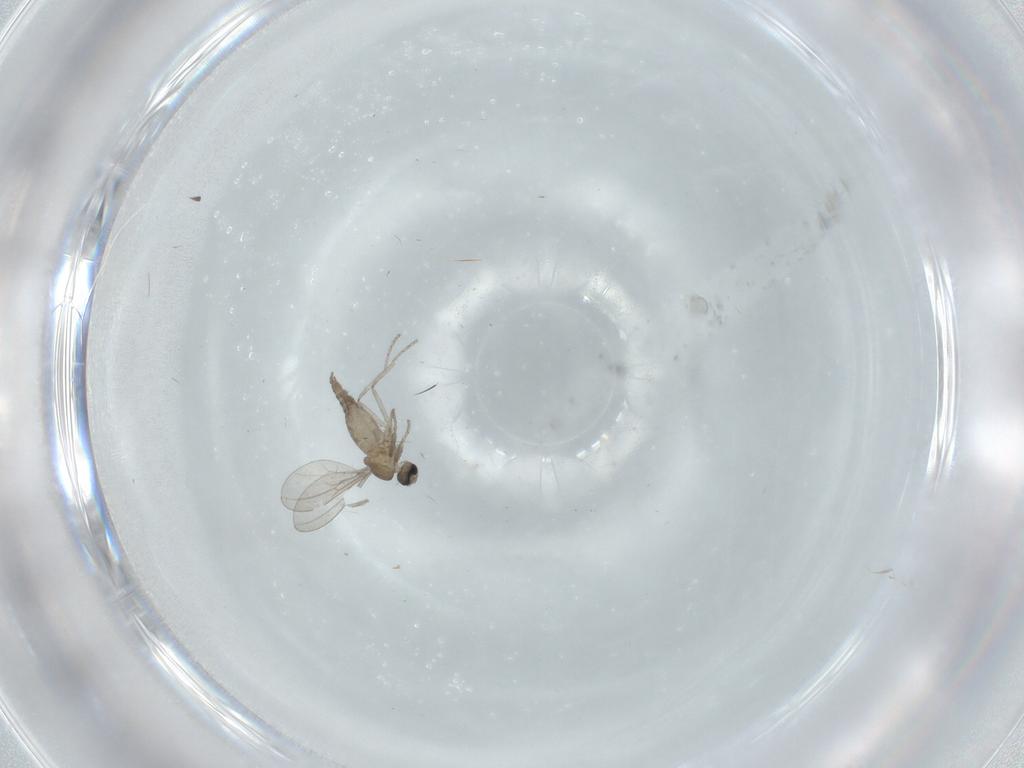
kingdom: Animalia
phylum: Arthropoda
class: Insecta
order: Diptera
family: Cecidomyiidae
